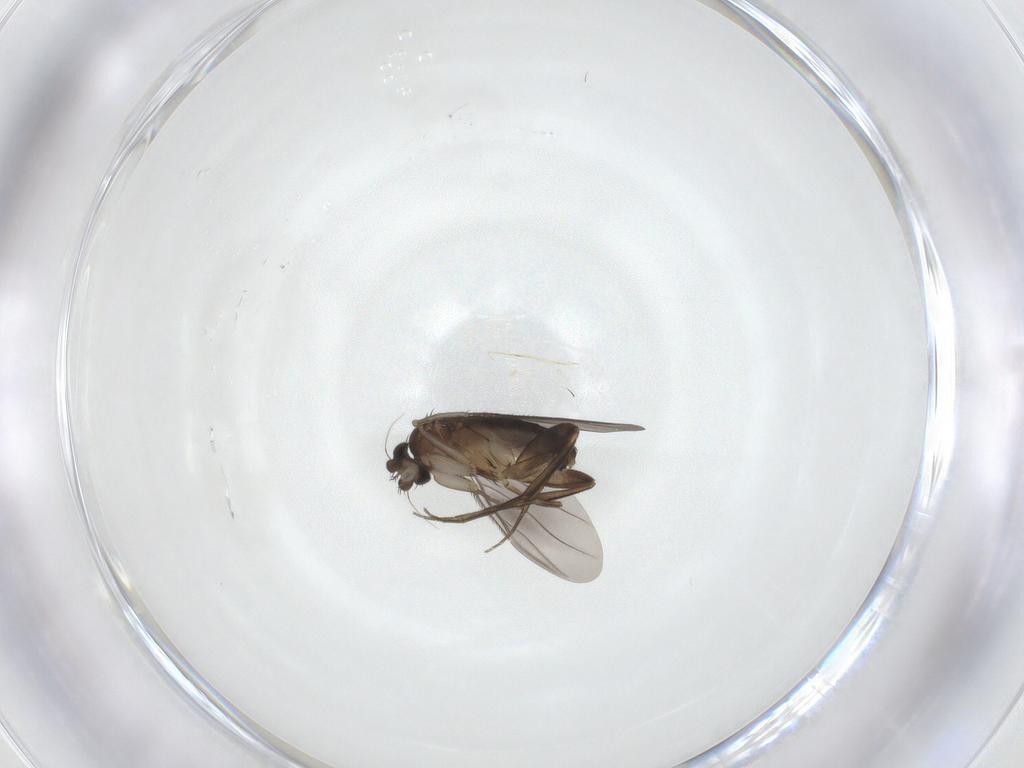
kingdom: Animalia
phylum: Arthropoda
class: Insecta
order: Diptera
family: Phoridae
